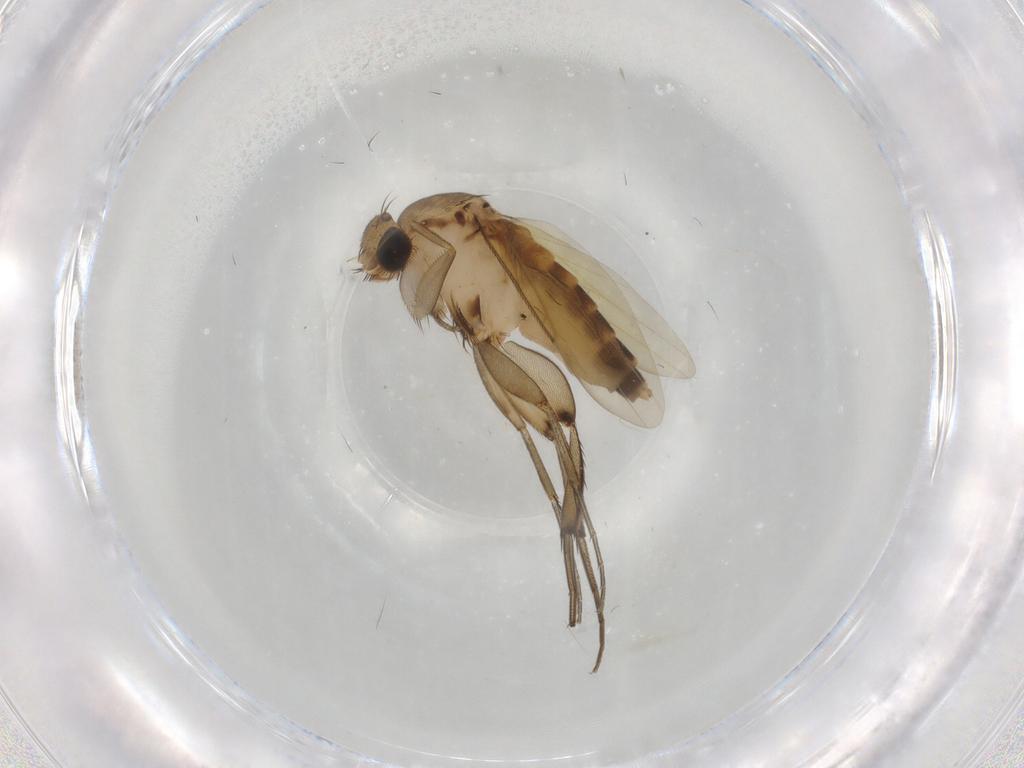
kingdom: Animalia
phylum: Arthropoda
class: Insecta
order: Diptera
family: Phoridae
